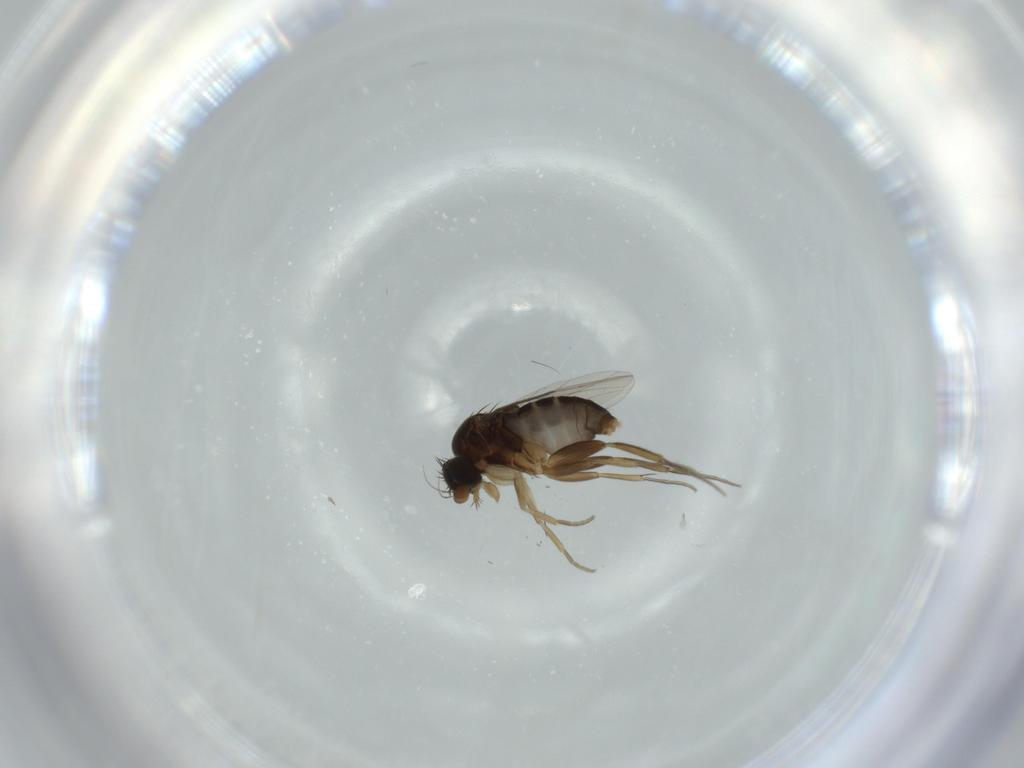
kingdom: Animalia
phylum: Arthropoda
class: Insecta
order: Diptera
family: Phoridae
